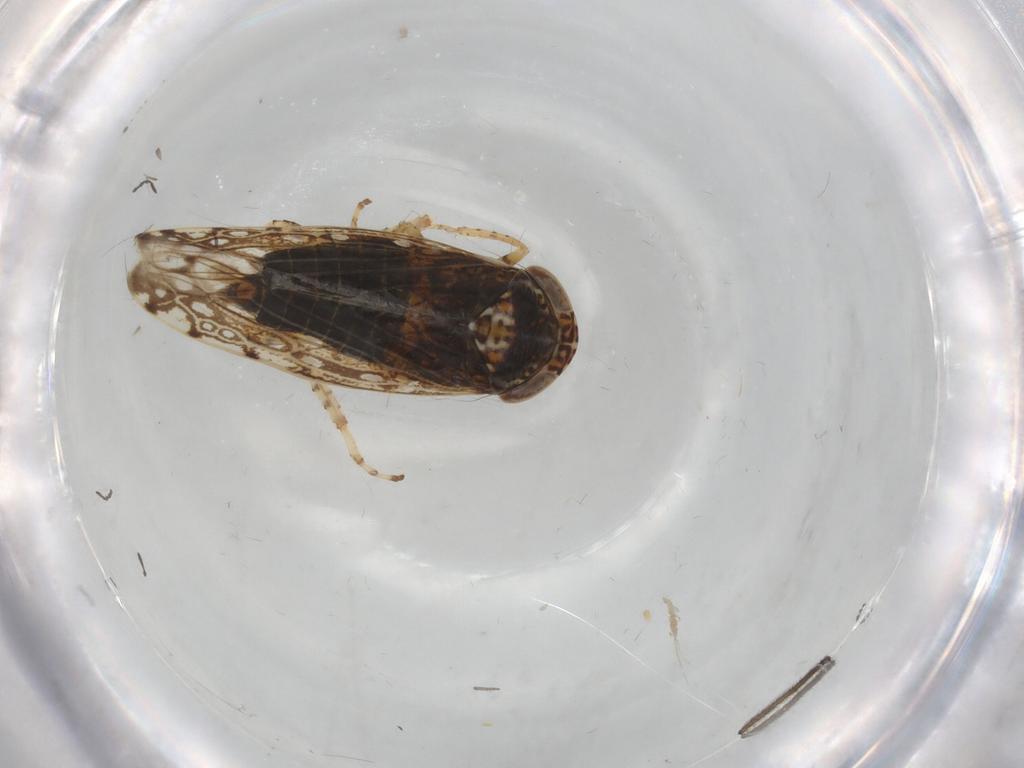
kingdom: Animalia
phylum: Arthropoda
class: Insecta
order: Hemiptera
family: Cicadellidae
